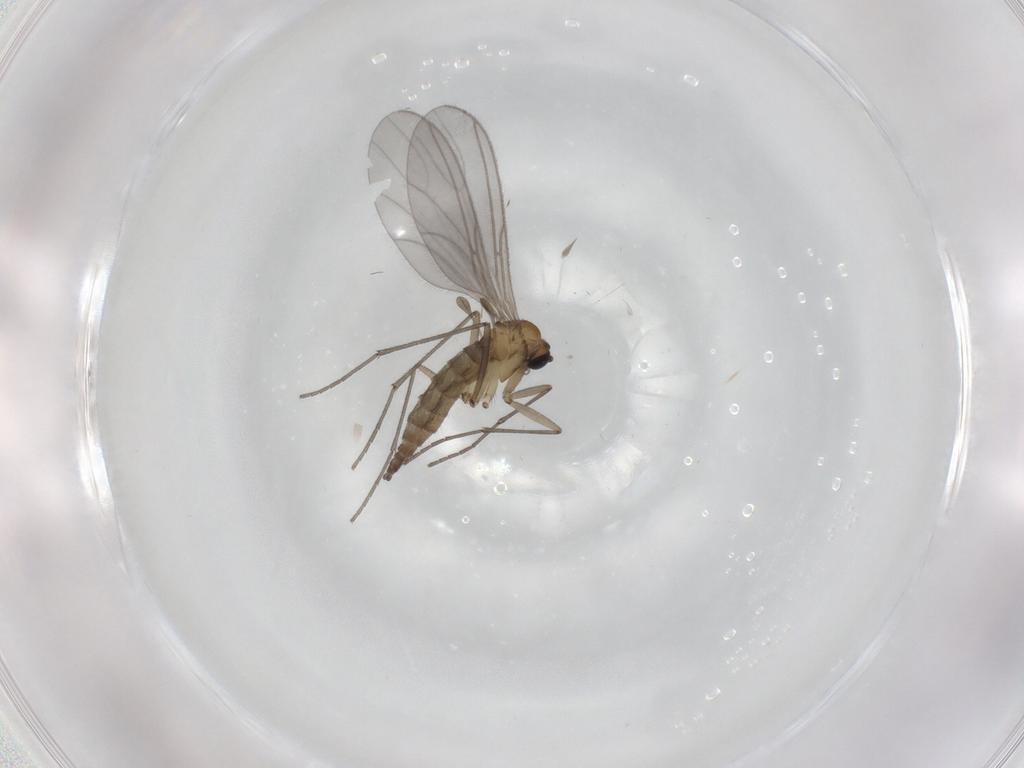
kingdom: Animalia
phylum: Arthropoda
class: Insecta
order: Diptera
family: Sciaridae
